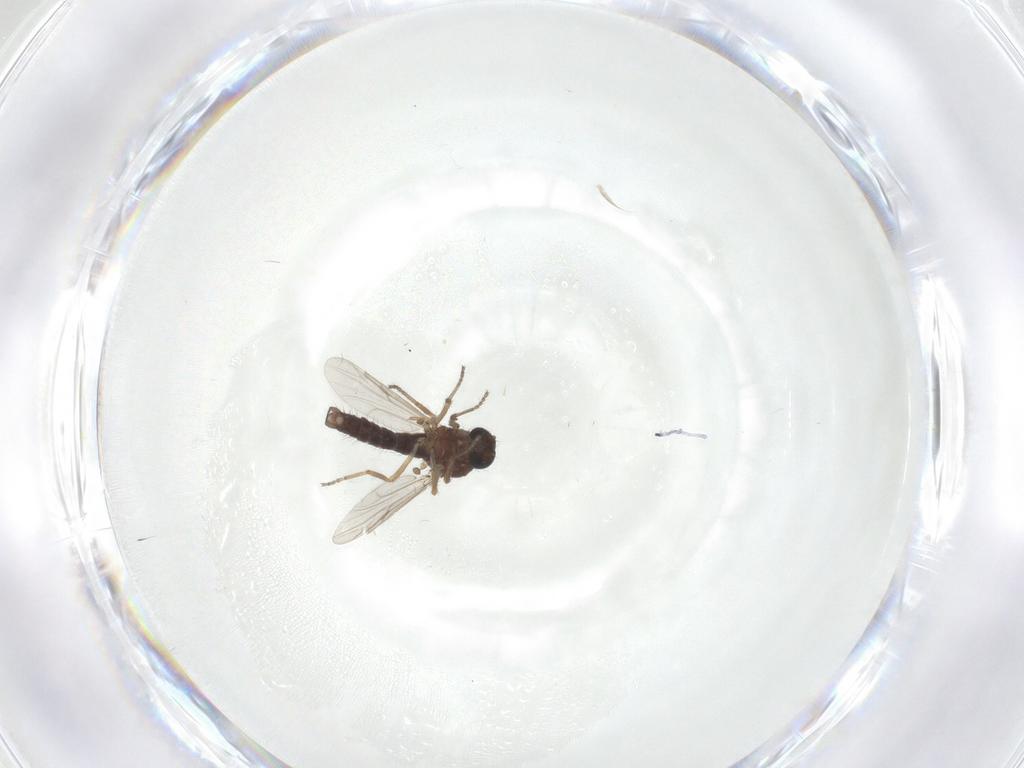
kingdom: Animalia
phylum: Arthropoda
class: Insecta
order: Diptera
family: Ceratopogonidae
